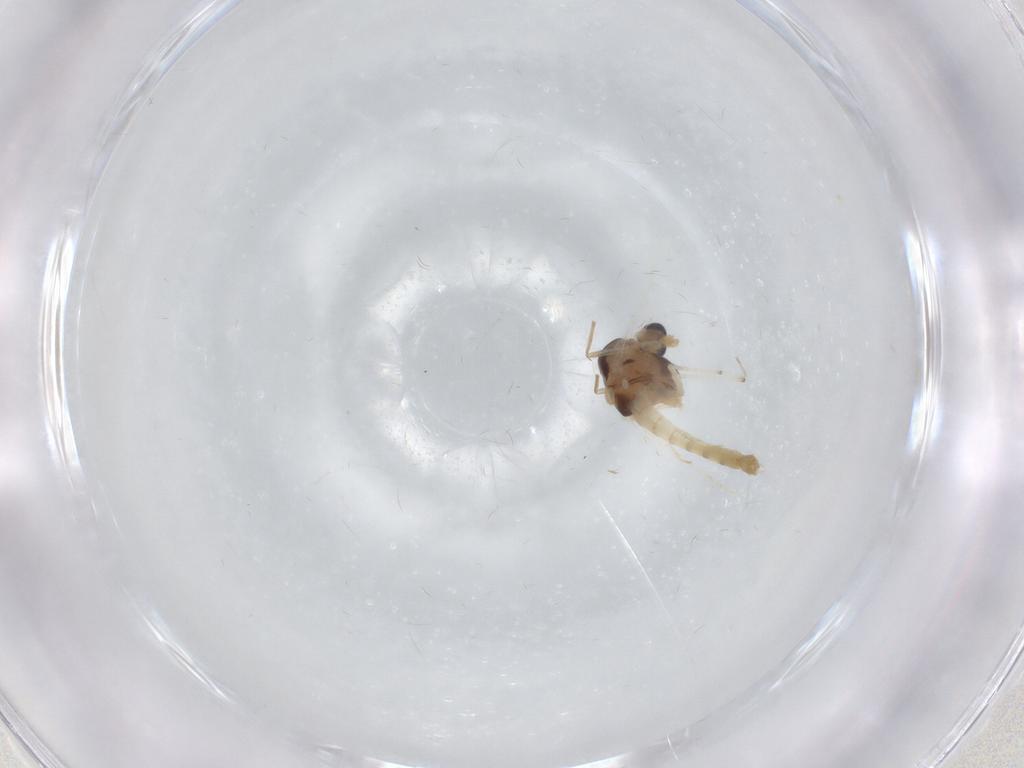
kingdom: Animalia
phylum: Arthropoda
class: Insecta
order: Diptera
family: Chironomidae
